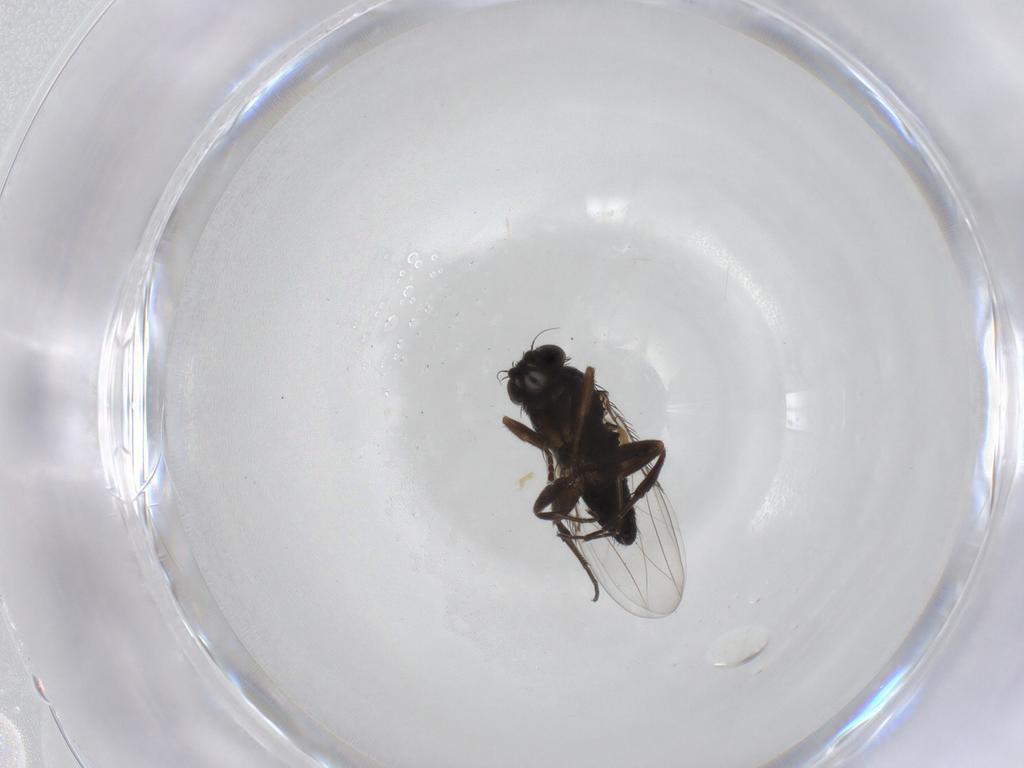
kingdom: Animalia
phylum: Arthropoda
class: Insecta
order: Diptera
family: Phoridae
